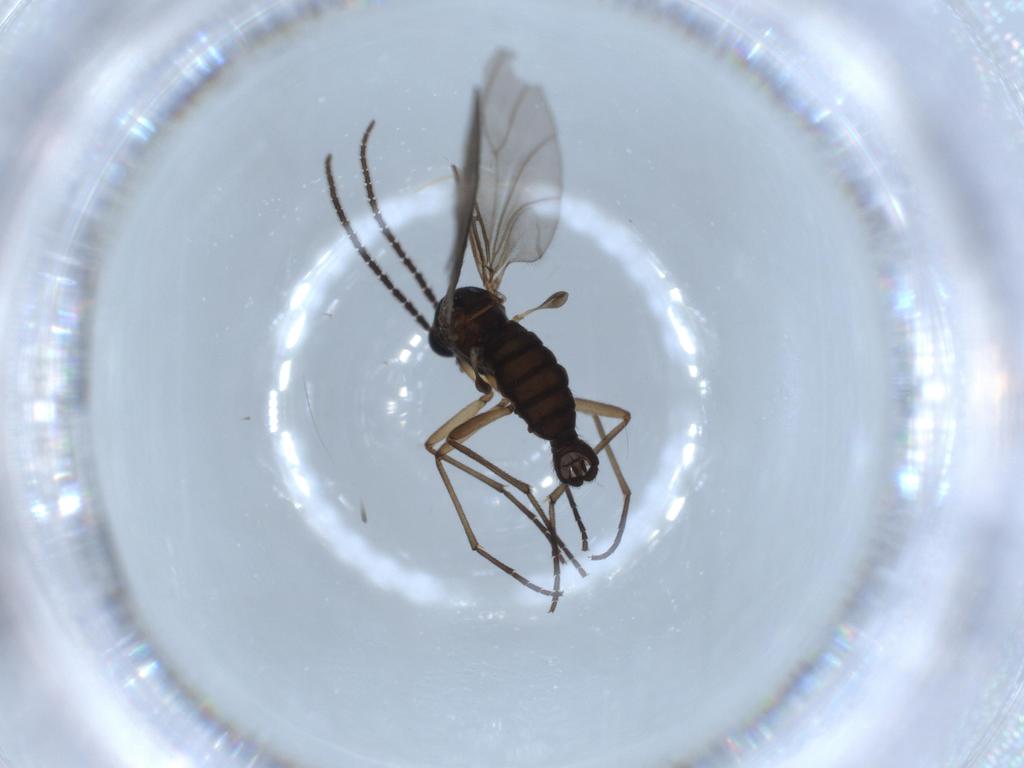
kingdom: Animalia
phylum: Arthropoda
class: Insecta
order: Diptera
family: Sciaridae
